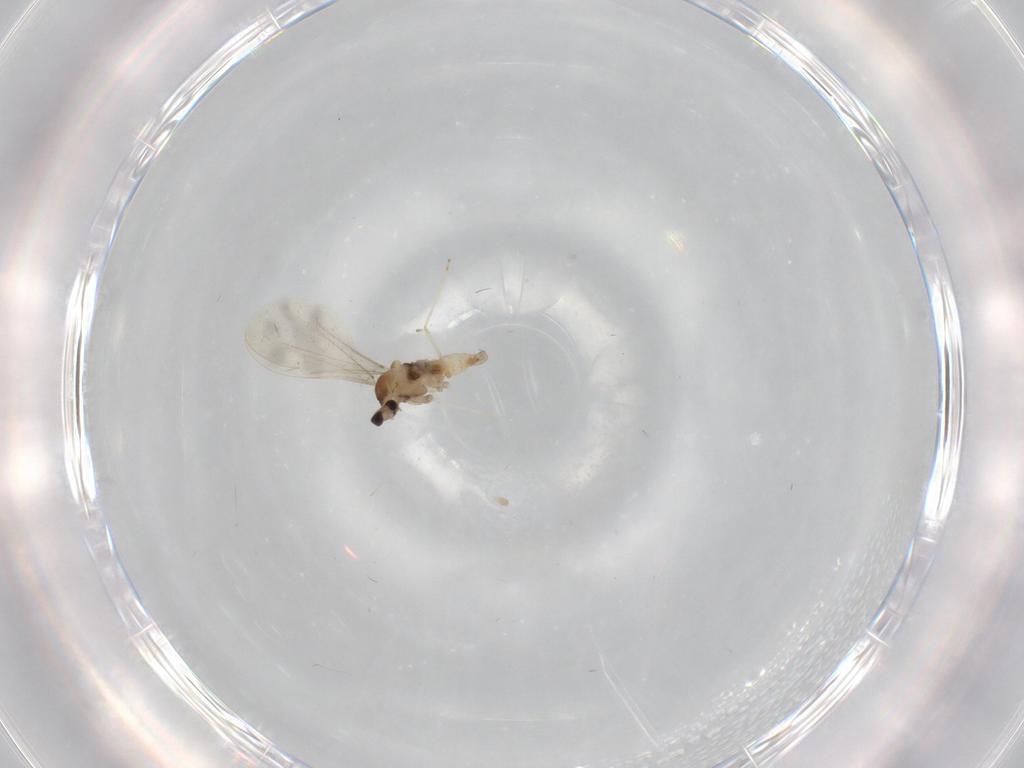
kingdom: Animalia
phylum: Arthropoda
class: Insecta
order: Diptera
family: Cecidomyiidae
